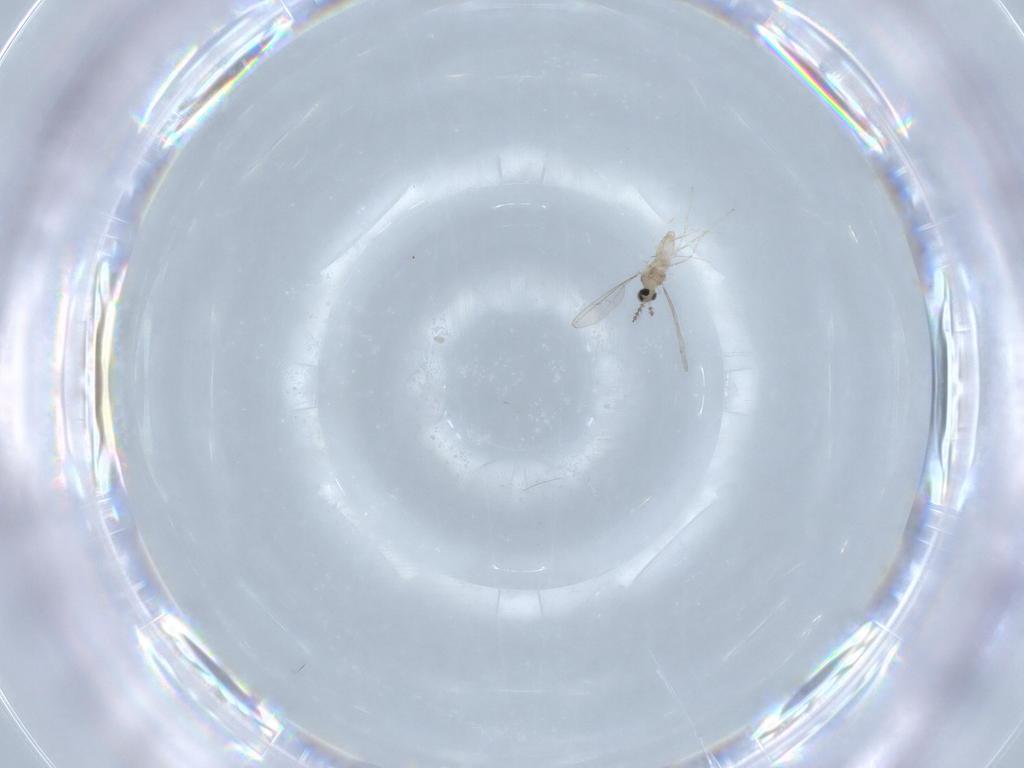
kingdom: Animalia
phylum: Arthropoda
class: Insecta
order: Diptera
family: Cecidomyiidae
